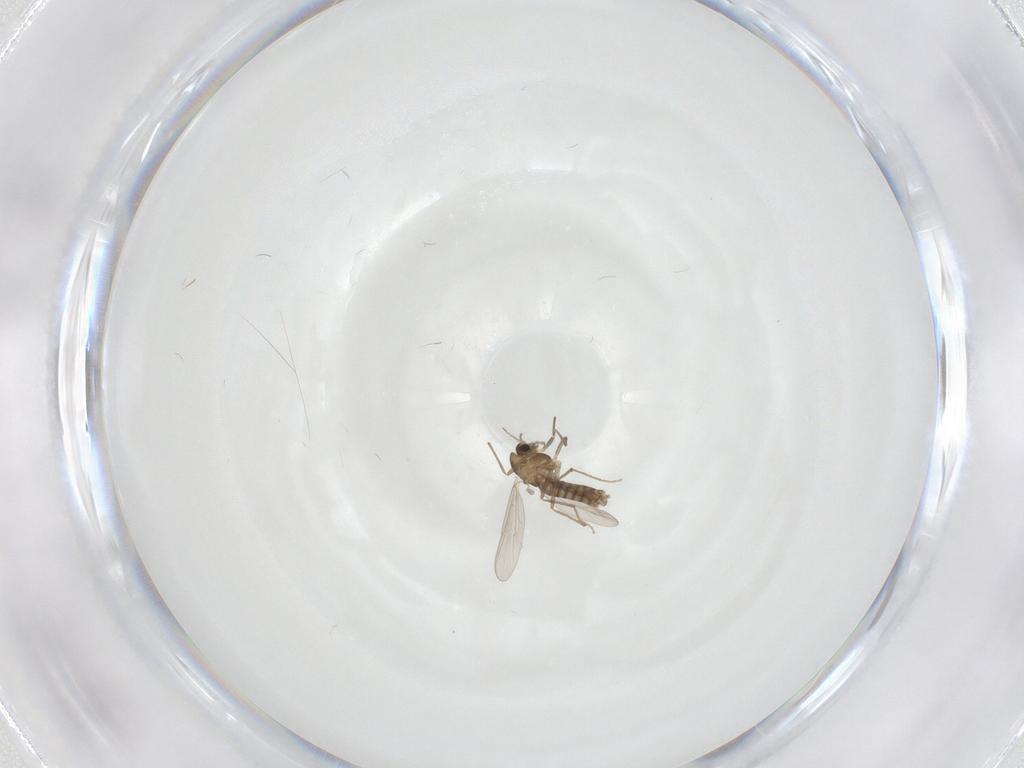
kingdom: Animalia
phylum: Arthropoda
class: Insecta
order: Diptera
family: Chironomidae
